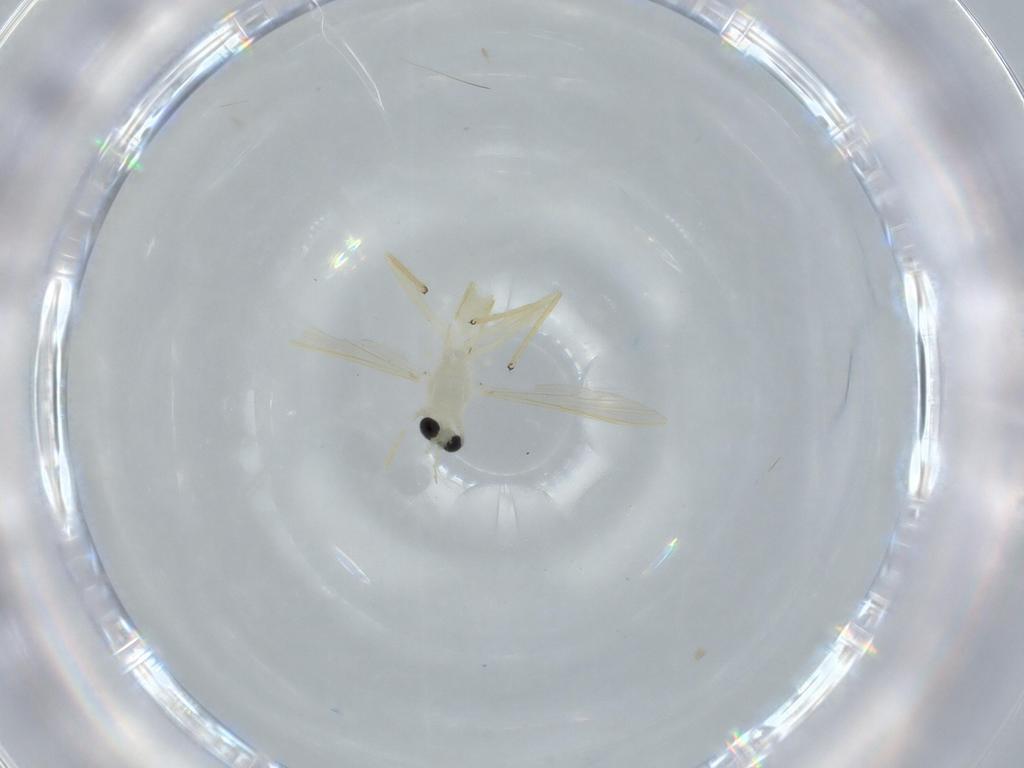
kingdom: Animalia
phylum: Arthropoda
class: Insecta
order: Diptera
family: Chironomidae
